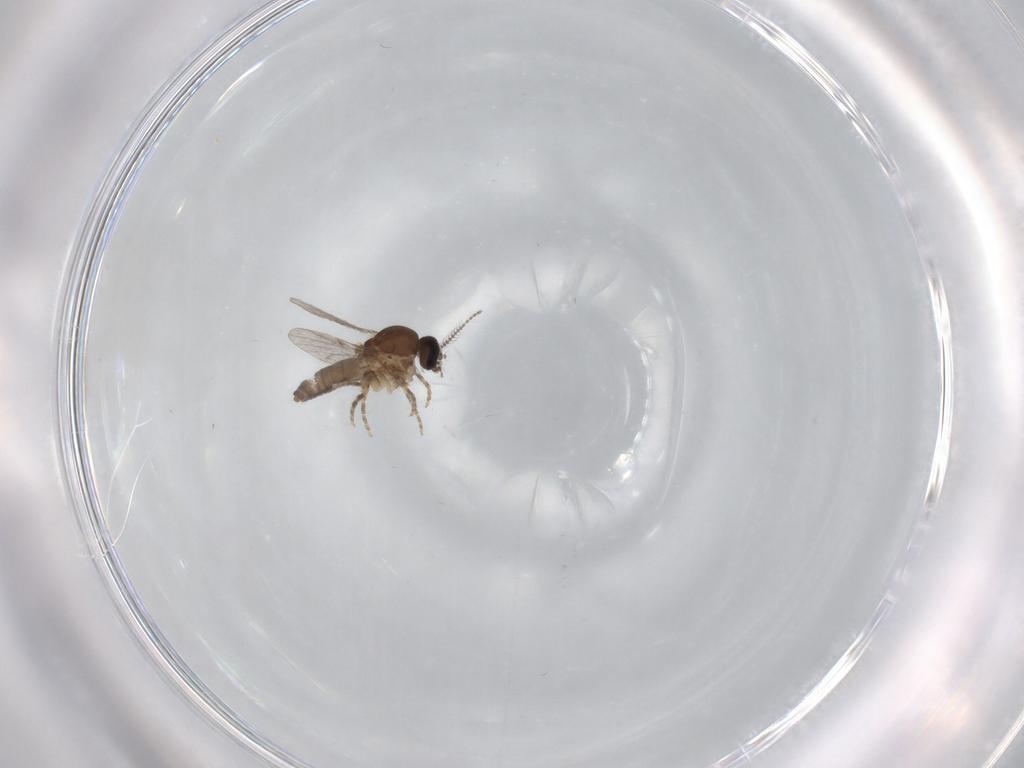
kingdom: Animalia
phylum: Arthropoda
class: Insecta
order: Diptera
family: Ceratopogonidae
